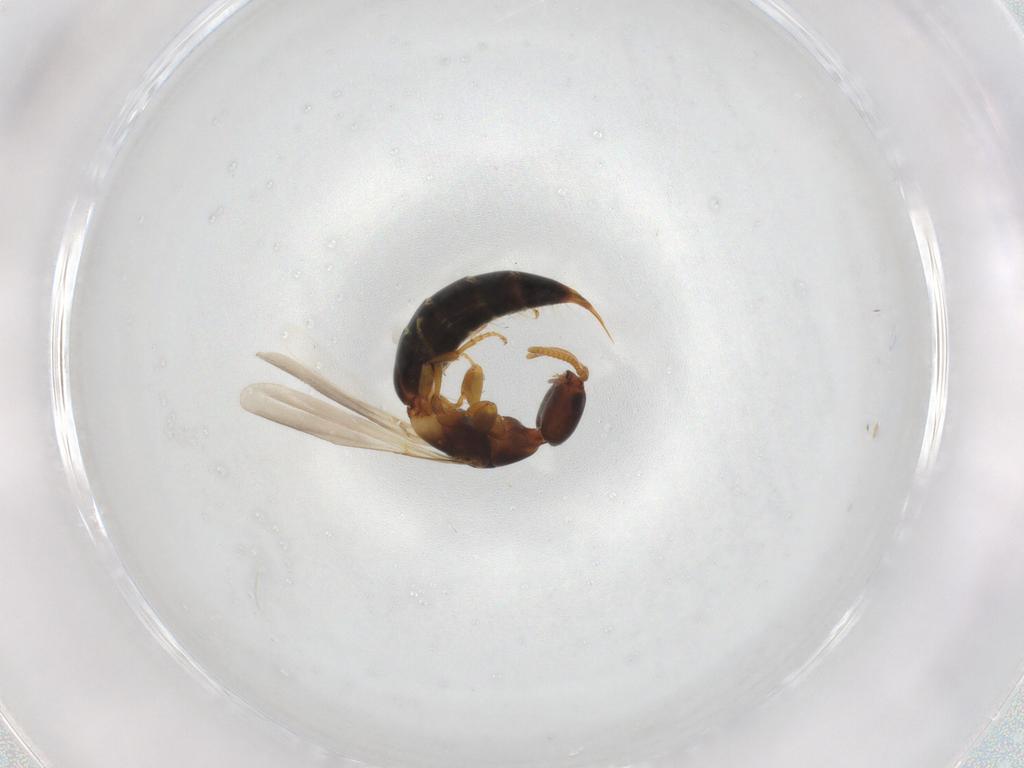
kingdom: Animalia
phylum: Arthropoda
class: Insecta
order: Hymenoptera
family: Bethylidae
